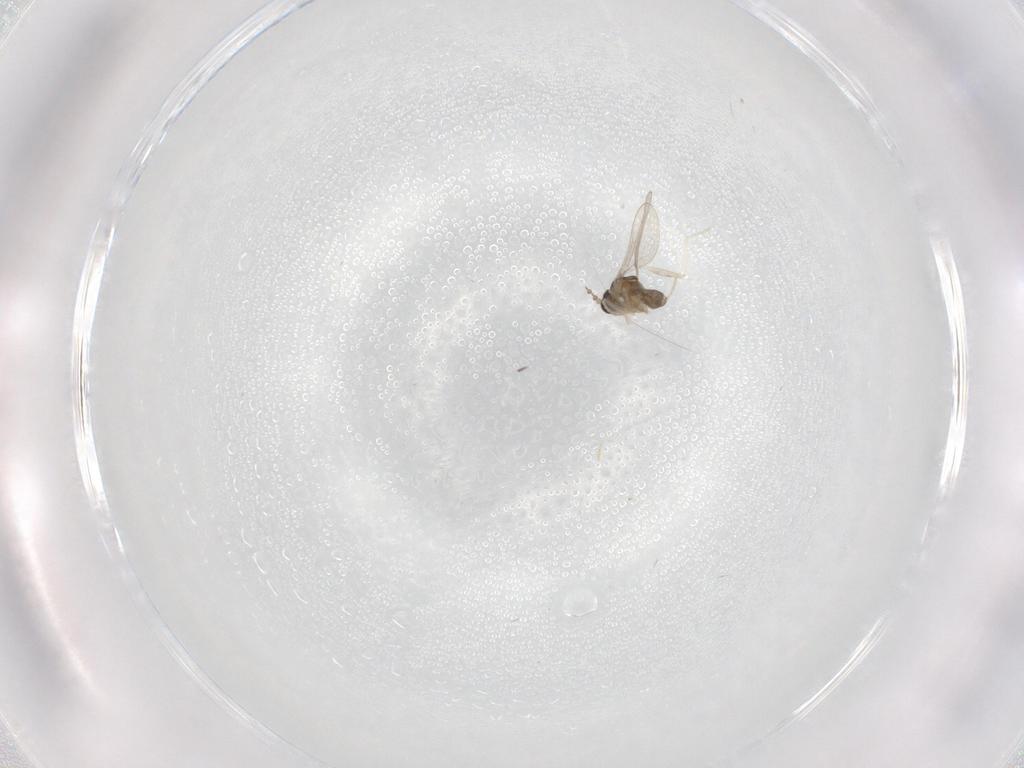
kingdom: Animalia
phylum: Arthropoda
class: Insecta
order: Diptera
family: Cecidomyiidae
